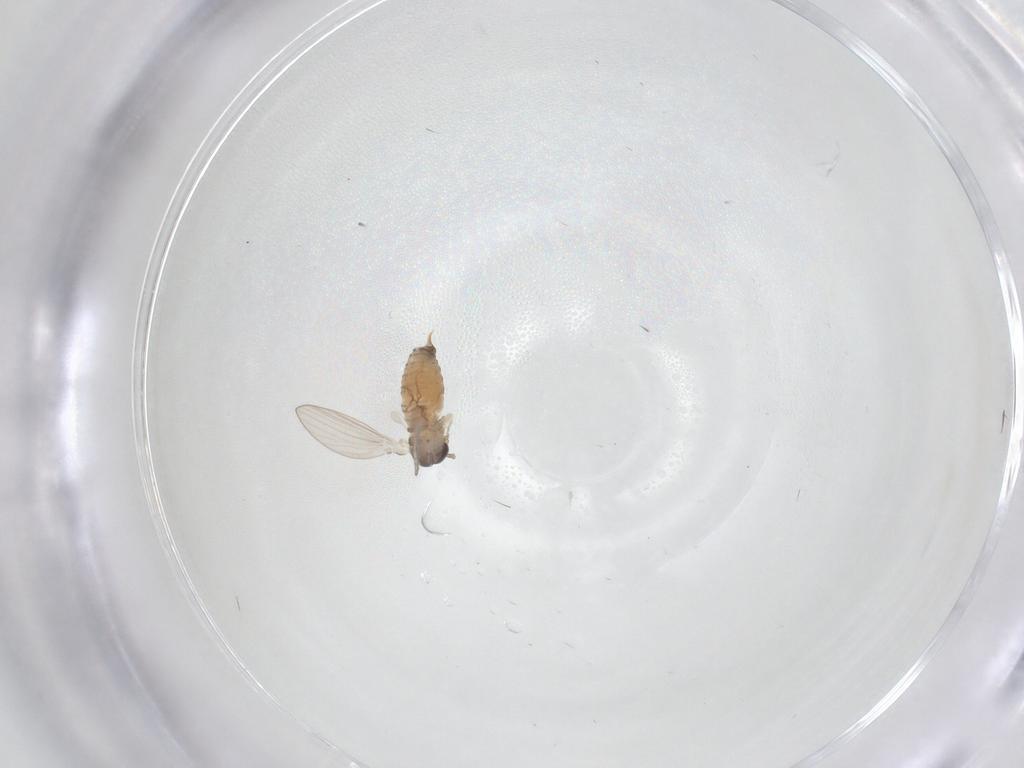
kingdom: Animalia
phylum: Arthropoda
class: Insecta
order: Diptera
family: Psychodidae
